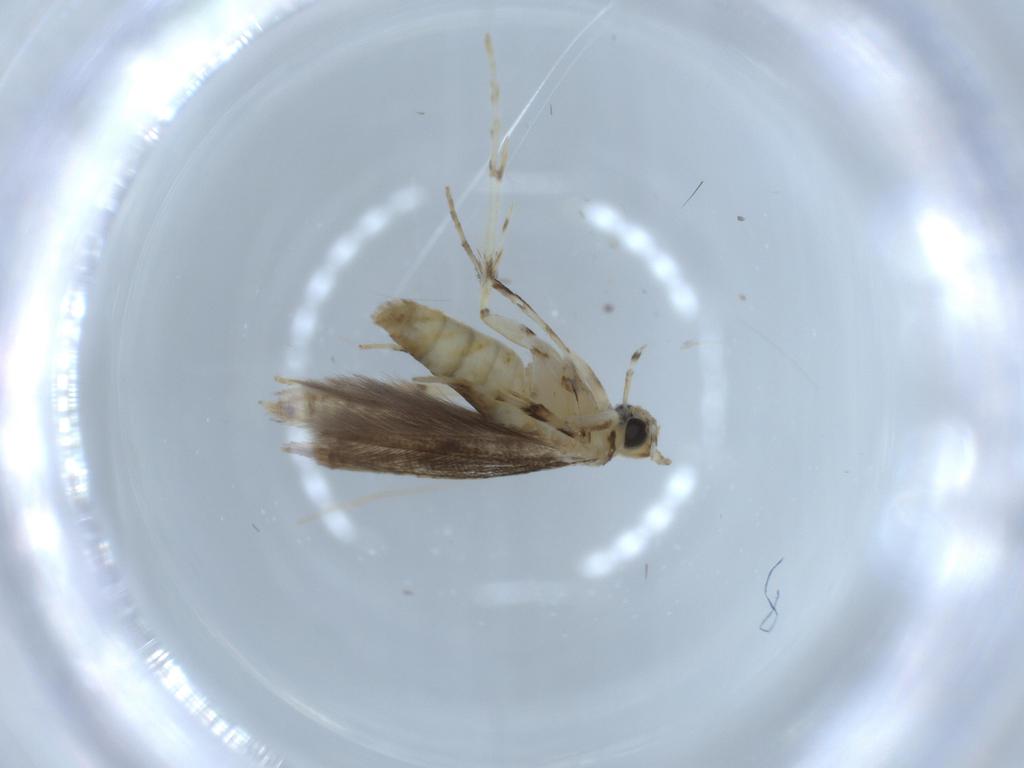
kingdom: Animalia
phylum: Arthropoda
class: Insecta
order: Lepidoptera
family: Gracillariidae
